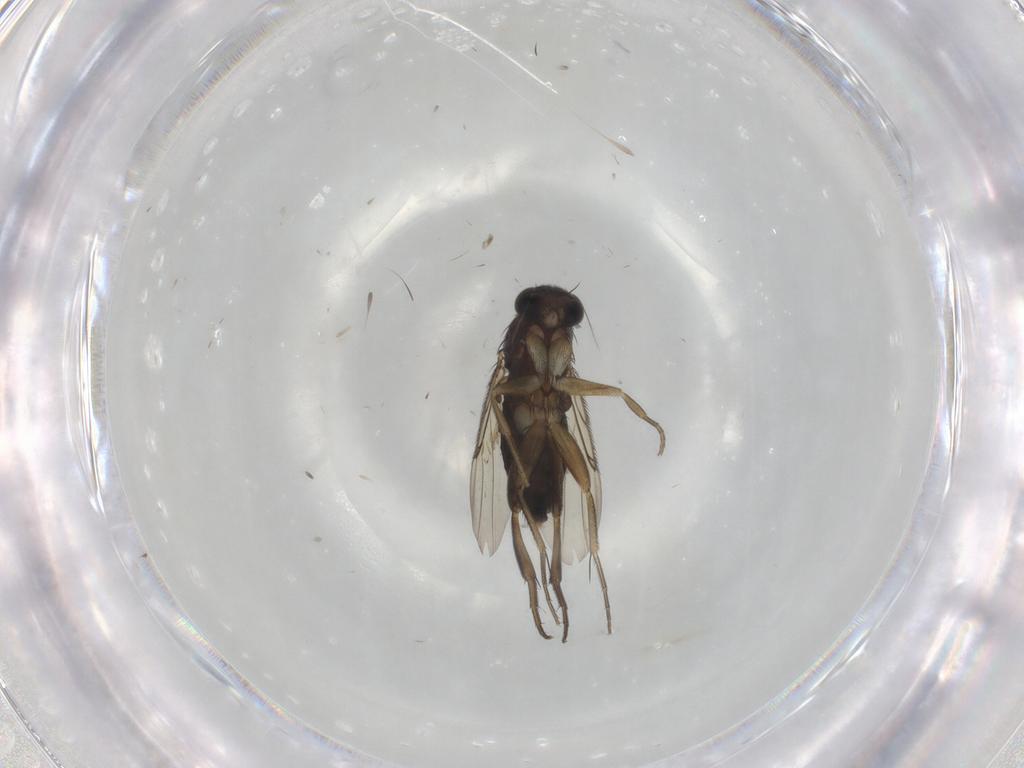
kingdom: Animalia
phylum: Arthropoda
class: Insecta
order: Diptera
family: Phoridae
